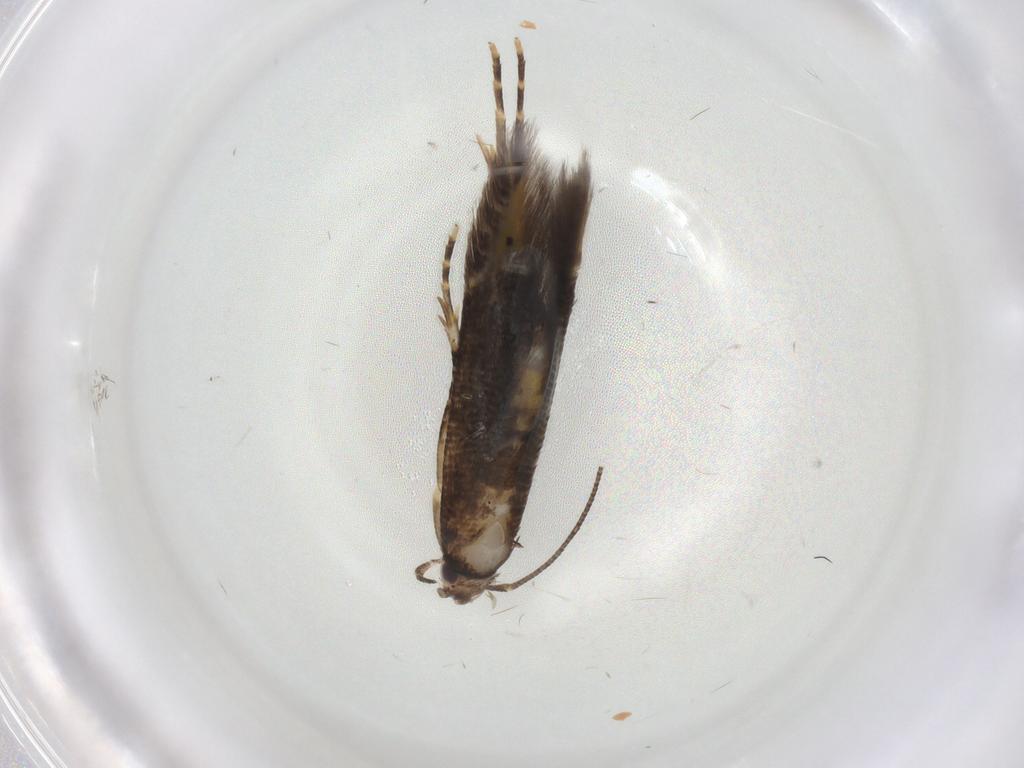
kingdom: Animalia
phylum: Arthropoda
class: Insecta
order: Lepidoptera
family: Cosmopterigidae
